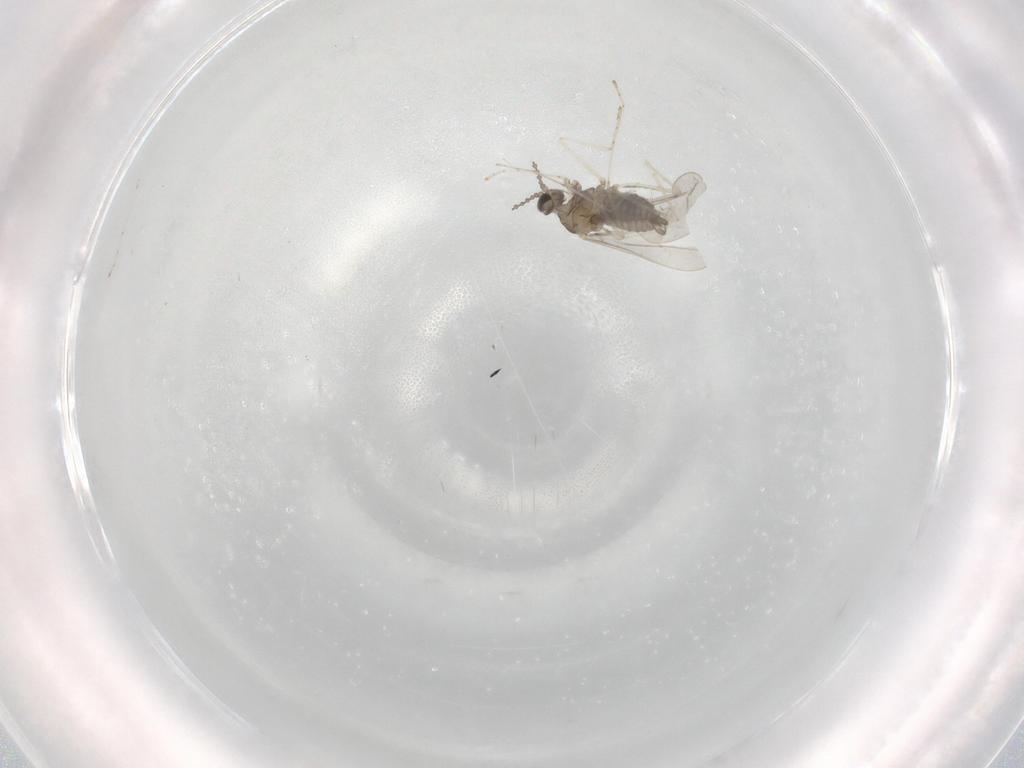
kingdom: Animalia
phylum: Arthropoda
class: Insecta
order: Diptera
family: Cecidomyiidae
